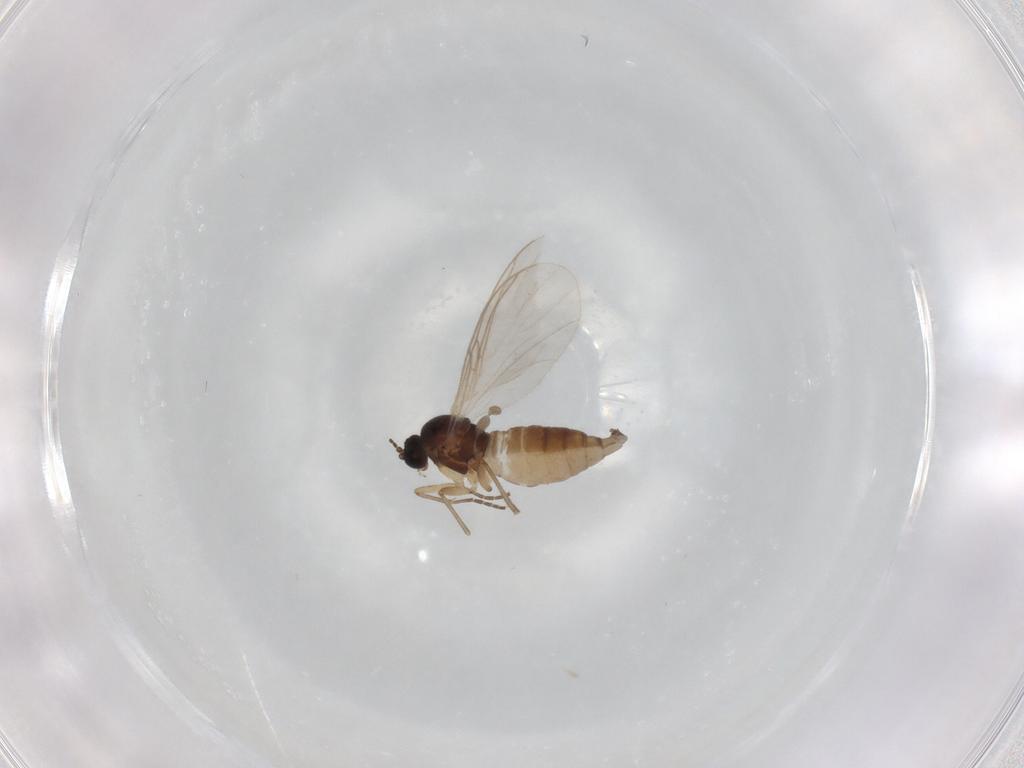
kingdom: Animalia
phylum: Arthropoda
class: Insecta
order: Diptera
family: Sciaridae
